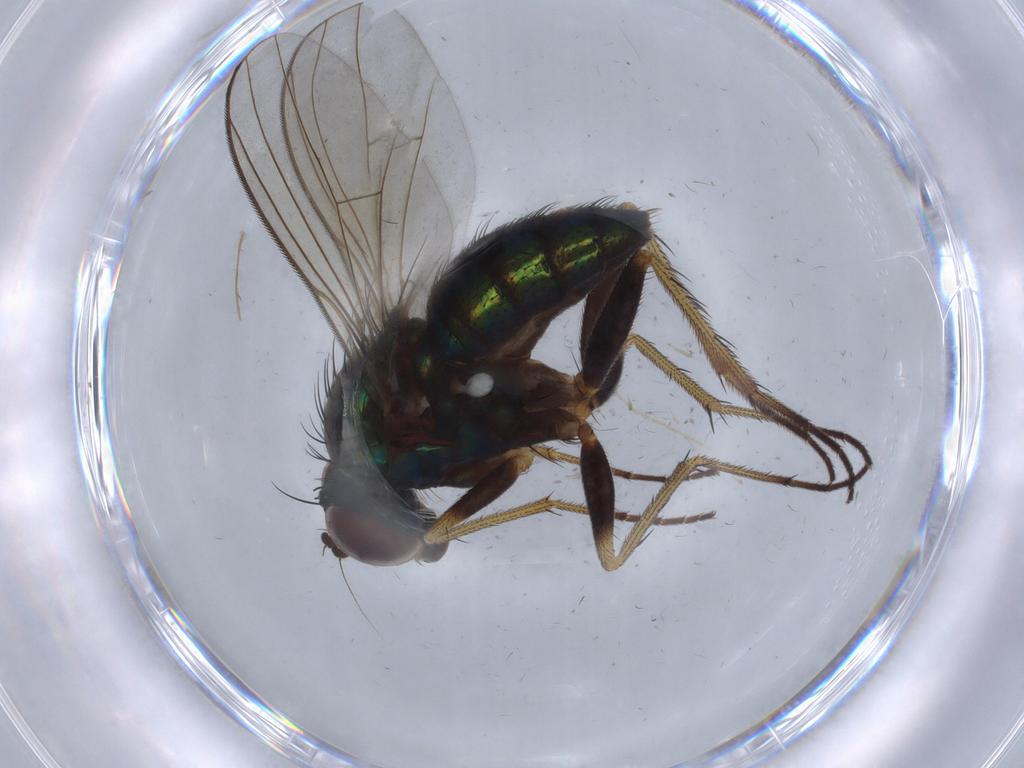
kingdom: Animalia
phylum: Arthropoda
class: Insecta
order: Diptera
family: Dolichopodidae
